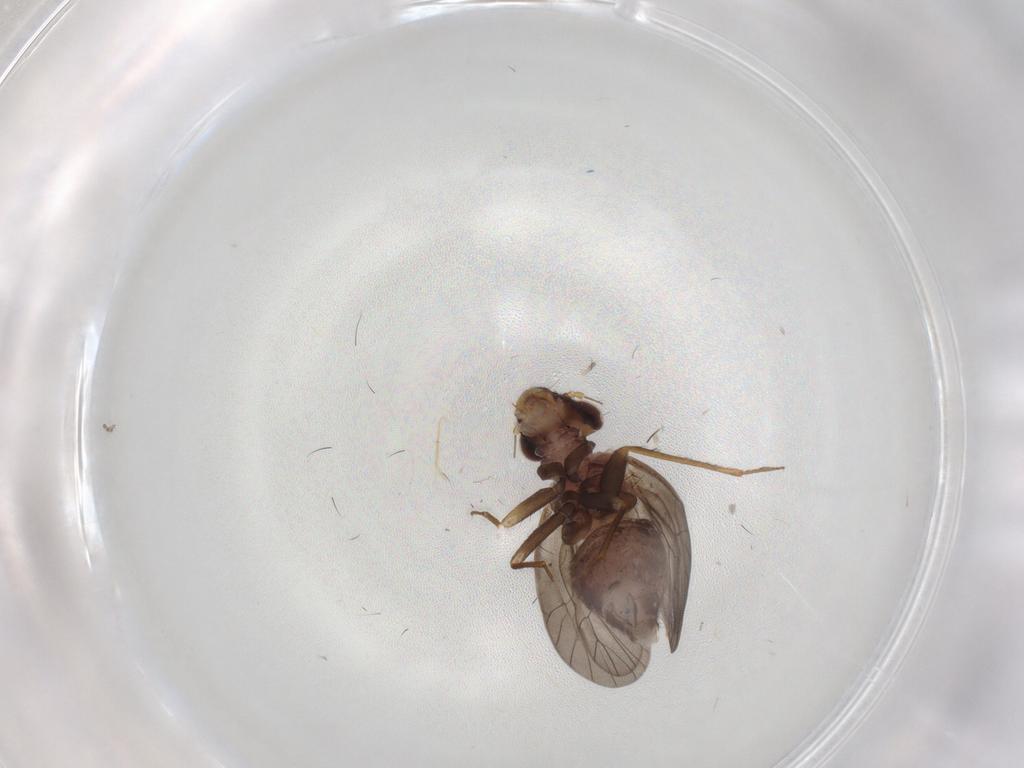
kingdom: Animalia
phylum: Arthropoda
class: Insecta
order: Psocodea
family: Lepidopsocidae
